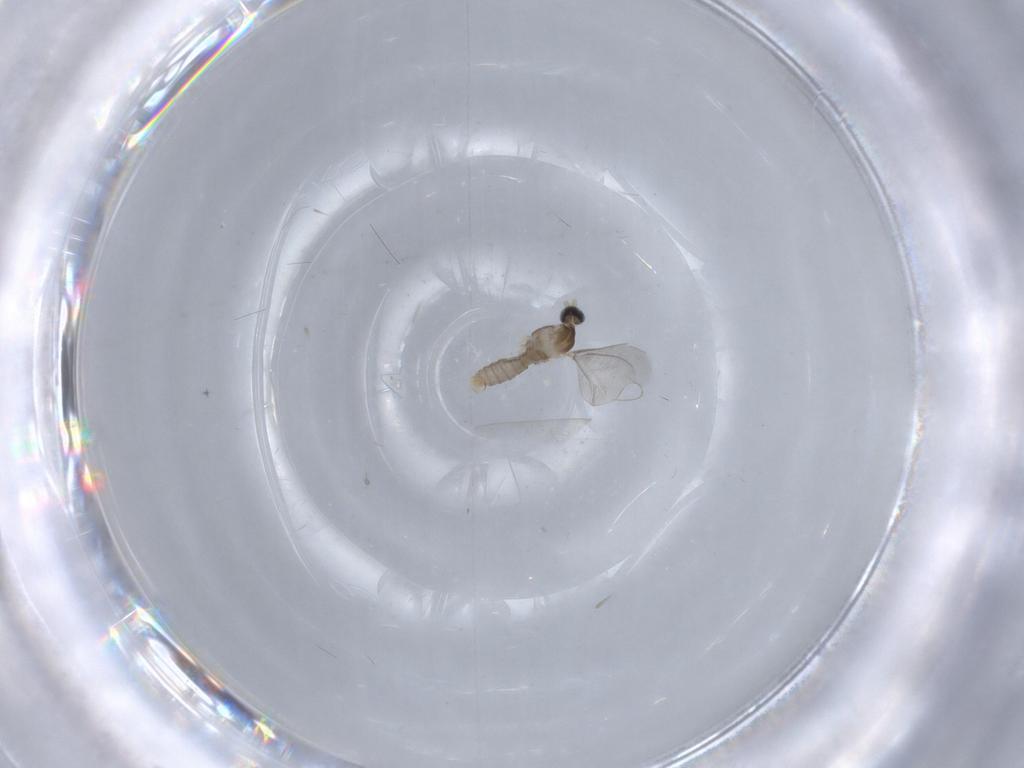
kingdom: Animalia
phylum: Arthropoda
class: Insecta
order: Diptera
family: Cecidomyiidae
